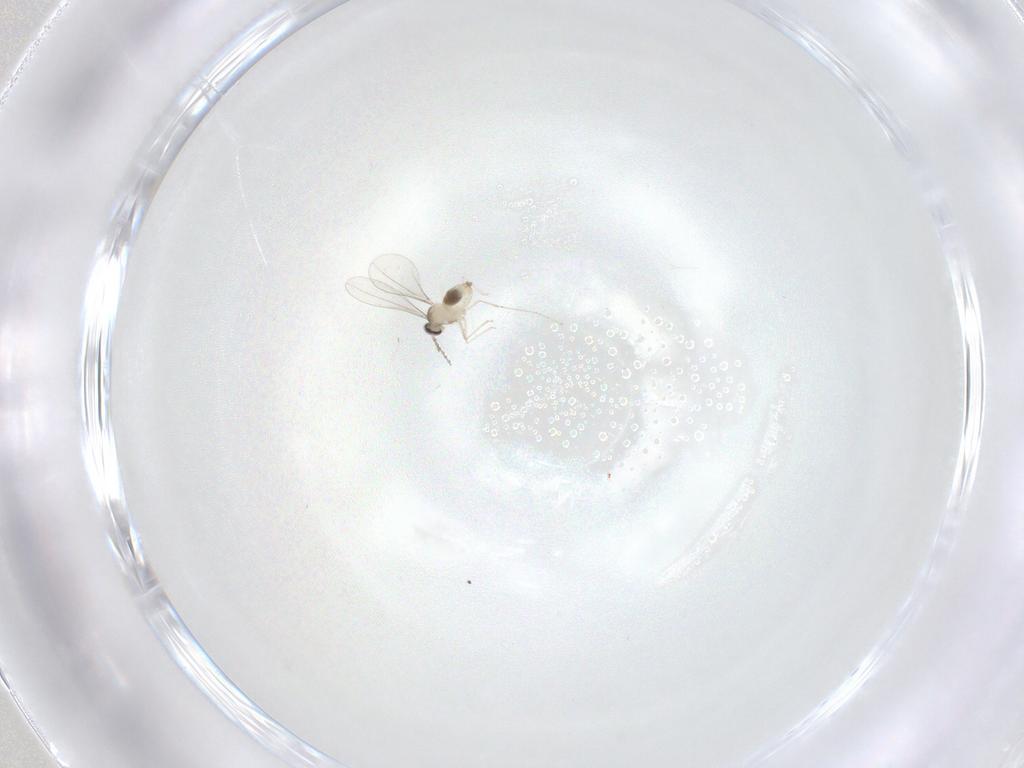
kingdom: Animalia
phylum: Arthropoda
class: Insecta
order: Diptera
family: Cecidomyiidae
